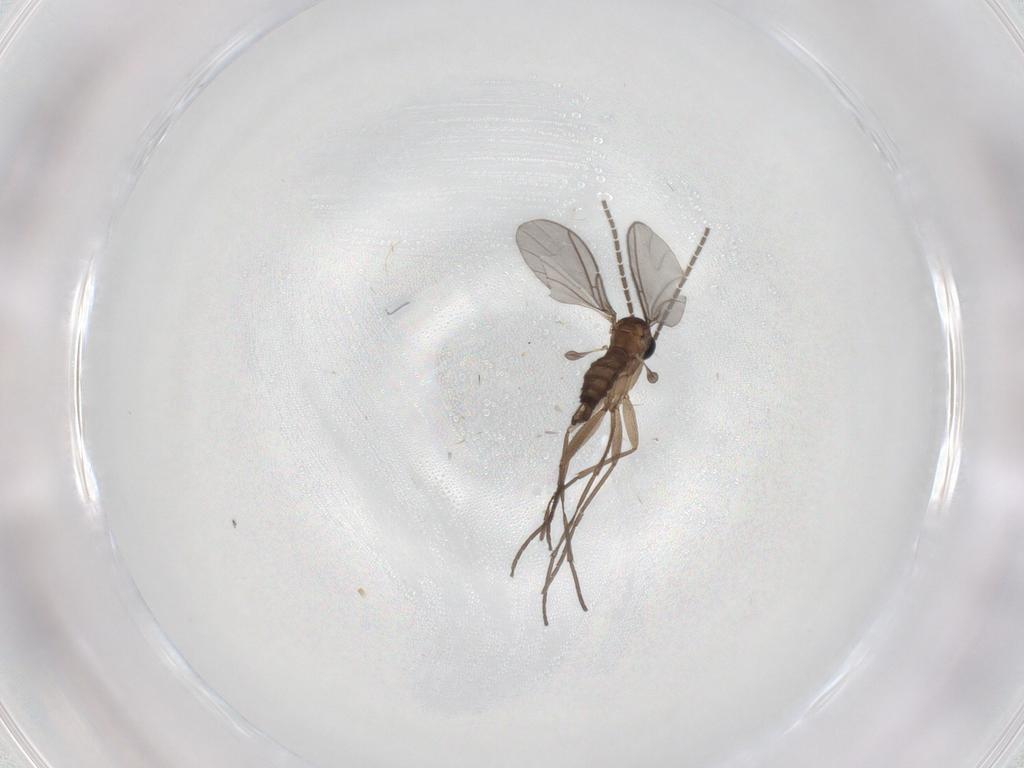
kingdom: Animalia
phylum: Arthropoda
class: Insecta
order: Diptera
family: Sciaridae
